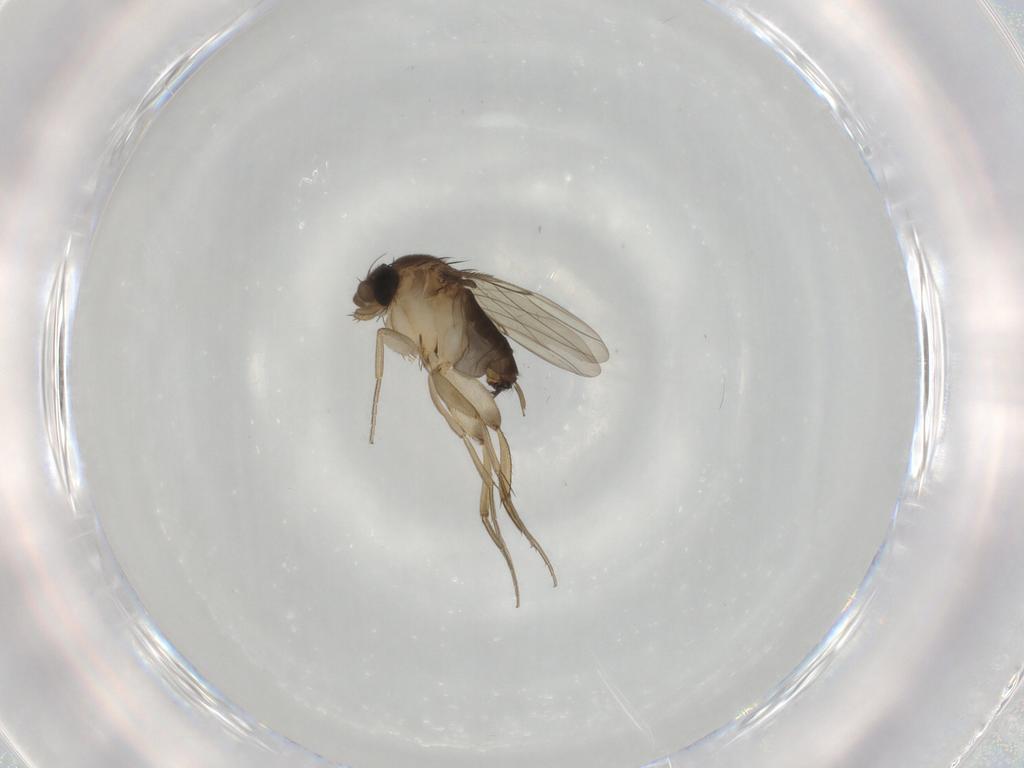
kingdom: Animalia
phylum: Arthropoda
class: Insecta
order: Diptera
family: Phoridae
